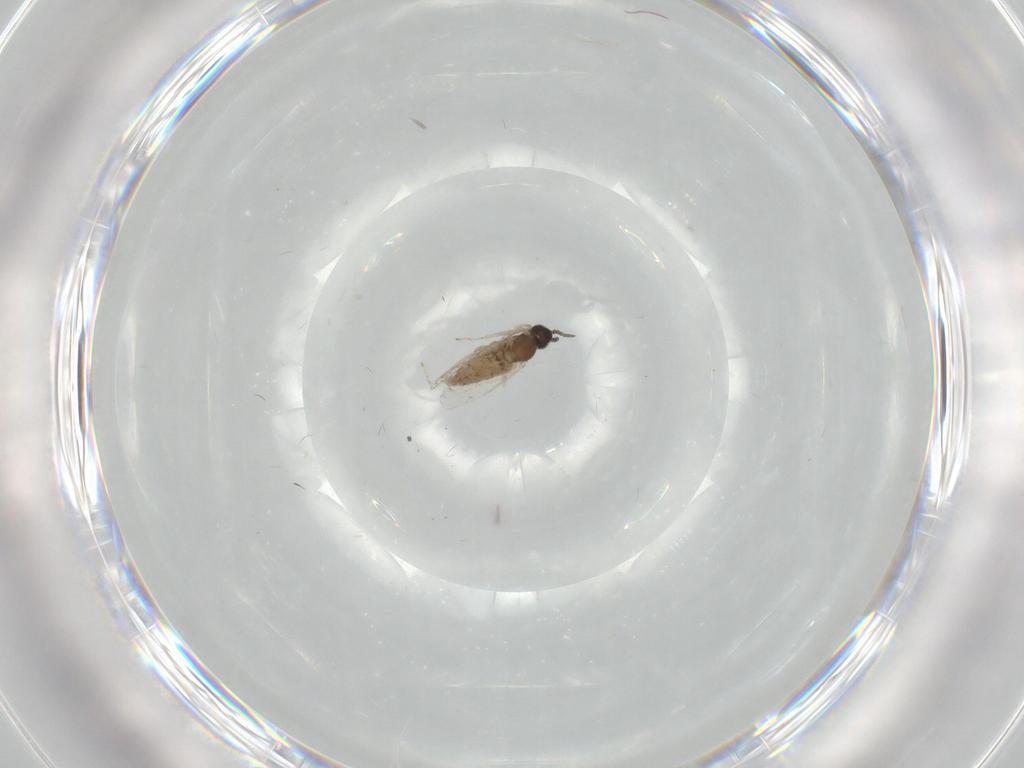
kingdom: Animalia
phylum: Arthropoda
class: Insecta
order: Diptera
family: Cecidomyiidae
